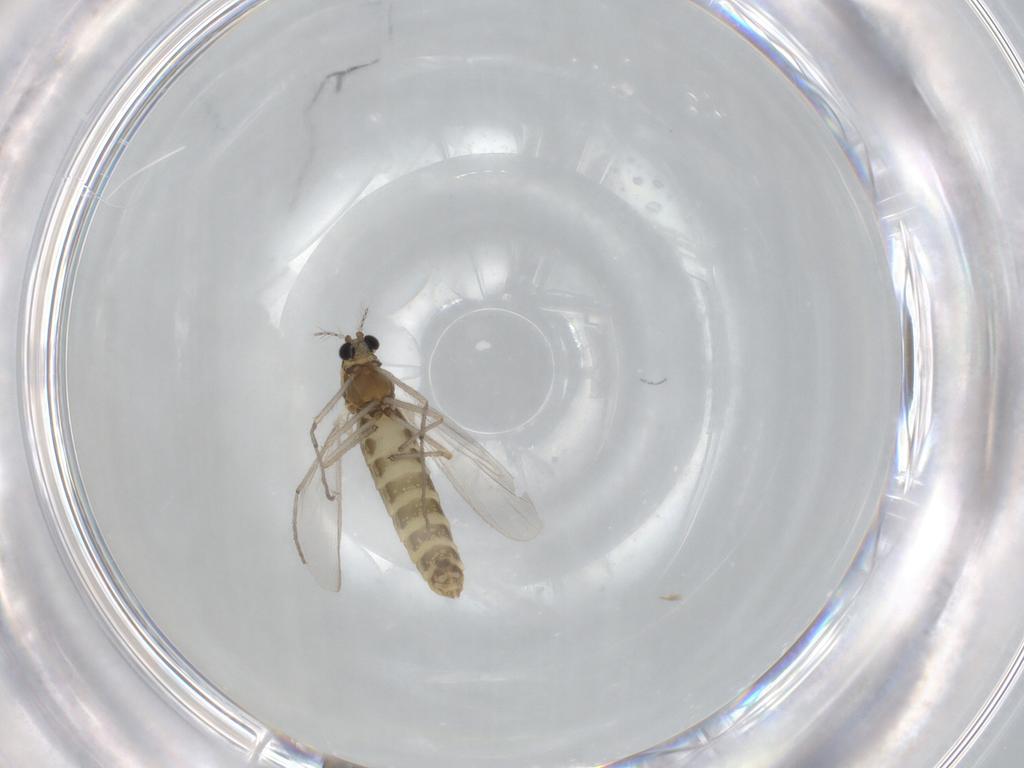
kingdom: Animalia
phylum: Arthropoda
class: Insecta
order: Diptera
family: Chironomidae
